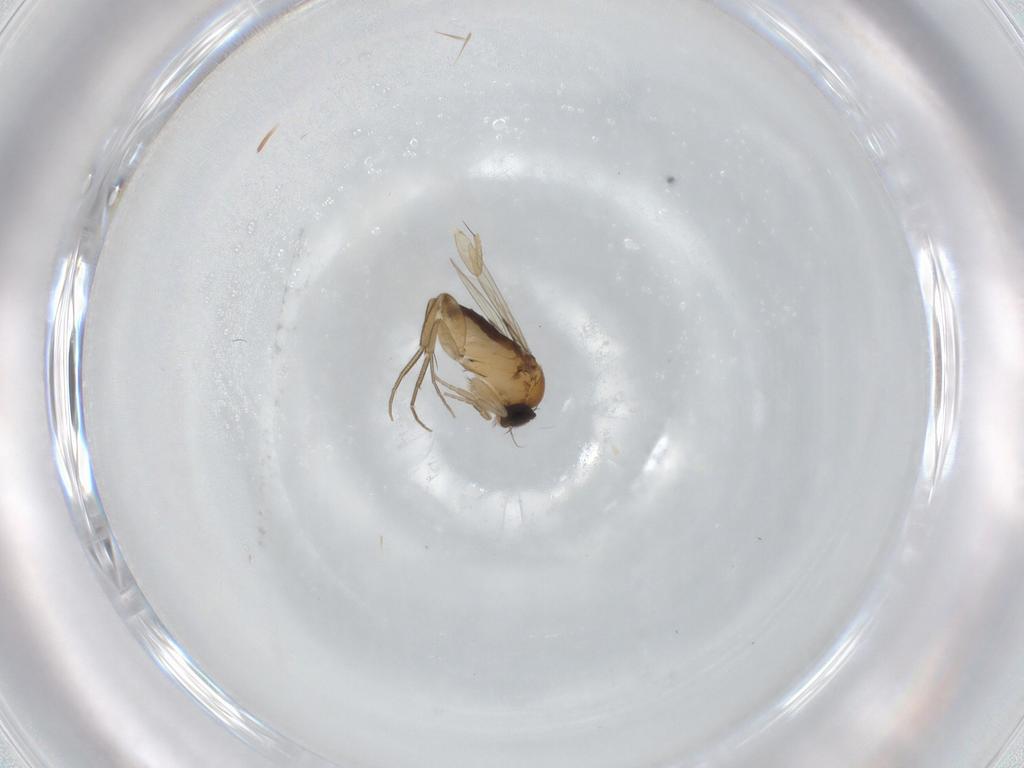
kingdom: Animalia
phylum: Arthropoda
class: Insecta
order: Diptera
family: Phoridae
